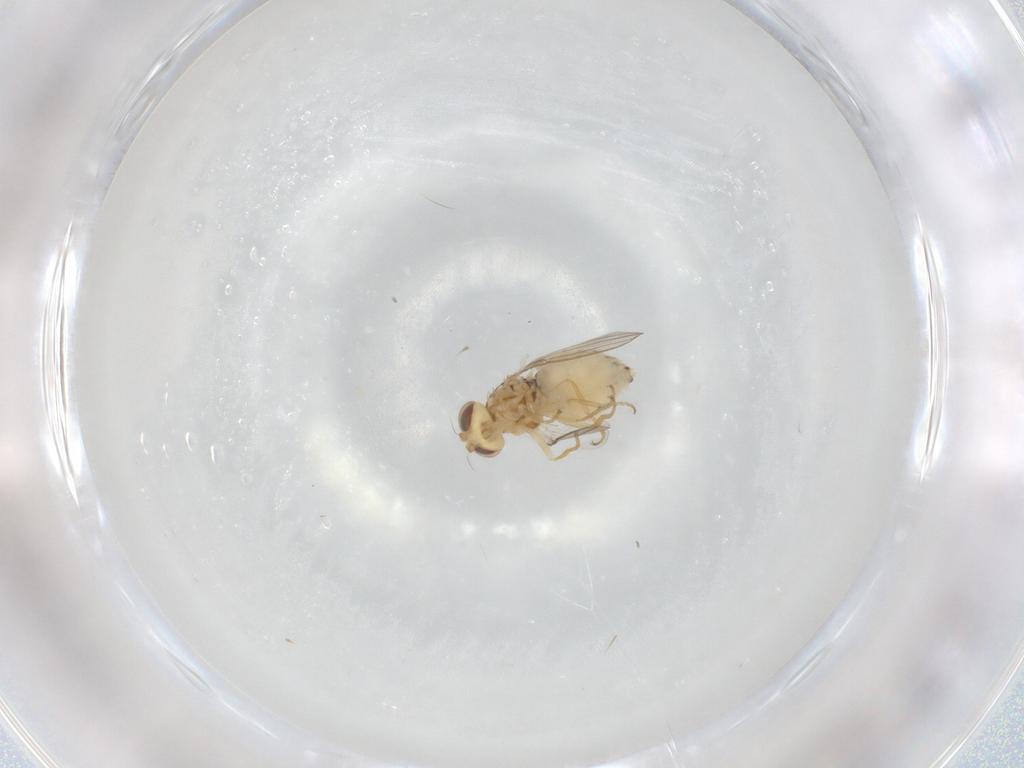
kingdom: Animalia
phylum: Arthropoda
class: Insecta
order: Diptera
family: Chyromyidae
